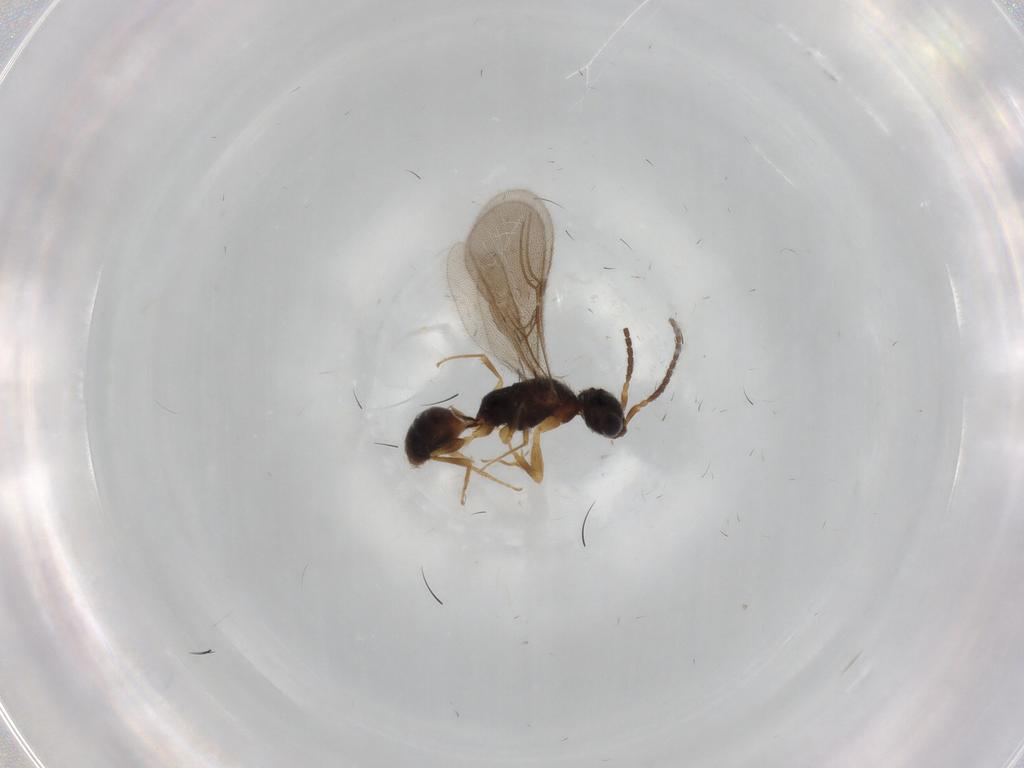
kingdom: Animalia
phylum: Arthropoda
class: Insecta
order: Hymenoptera
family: Bethylidae
